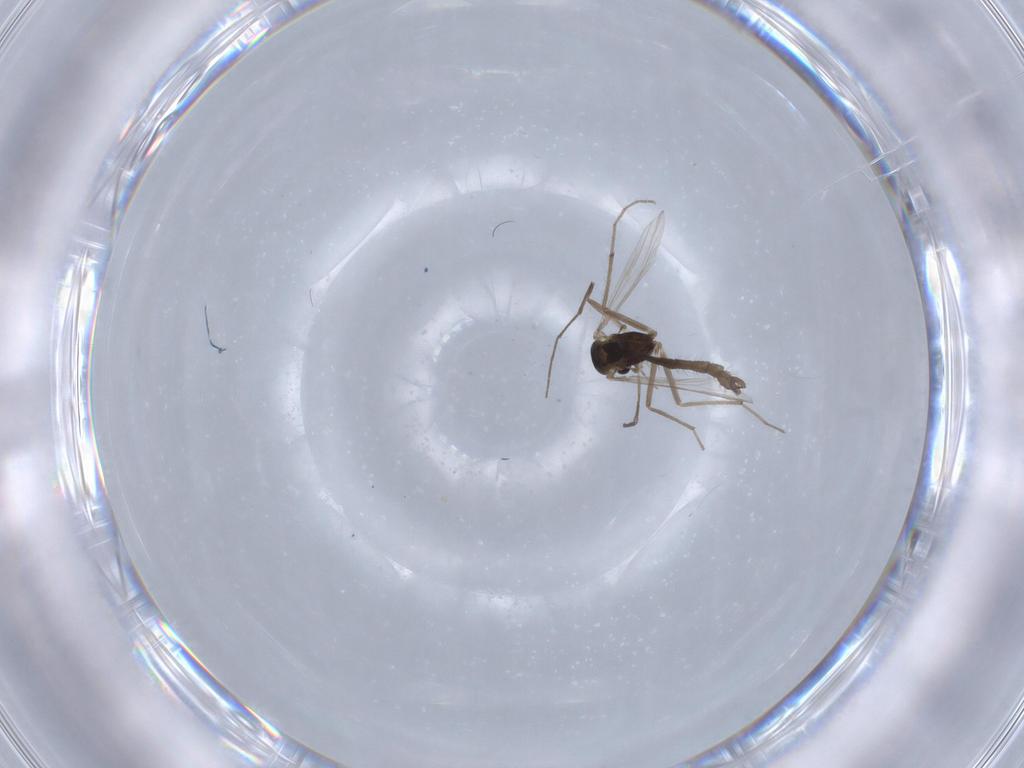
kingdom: Animalia
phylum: Arthropoda
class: Insecta
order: Diptera
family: Chironomidae
